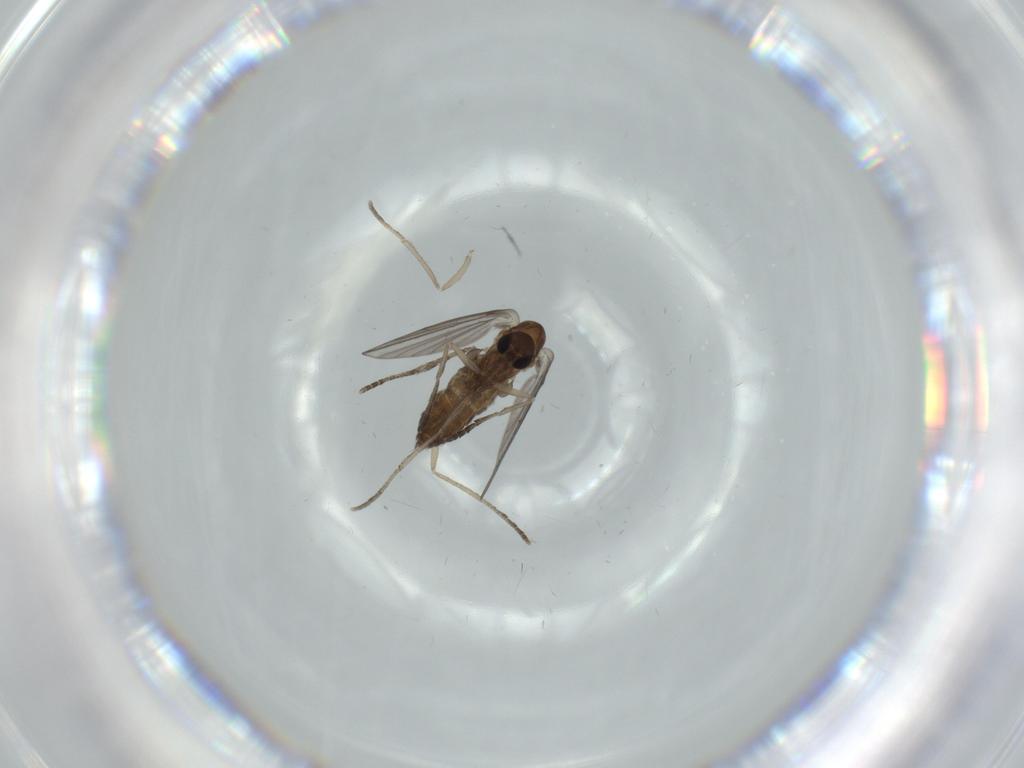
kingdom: Animalia
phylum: Arthropoda
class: Insecta
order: Diptera
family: Psychodidae
